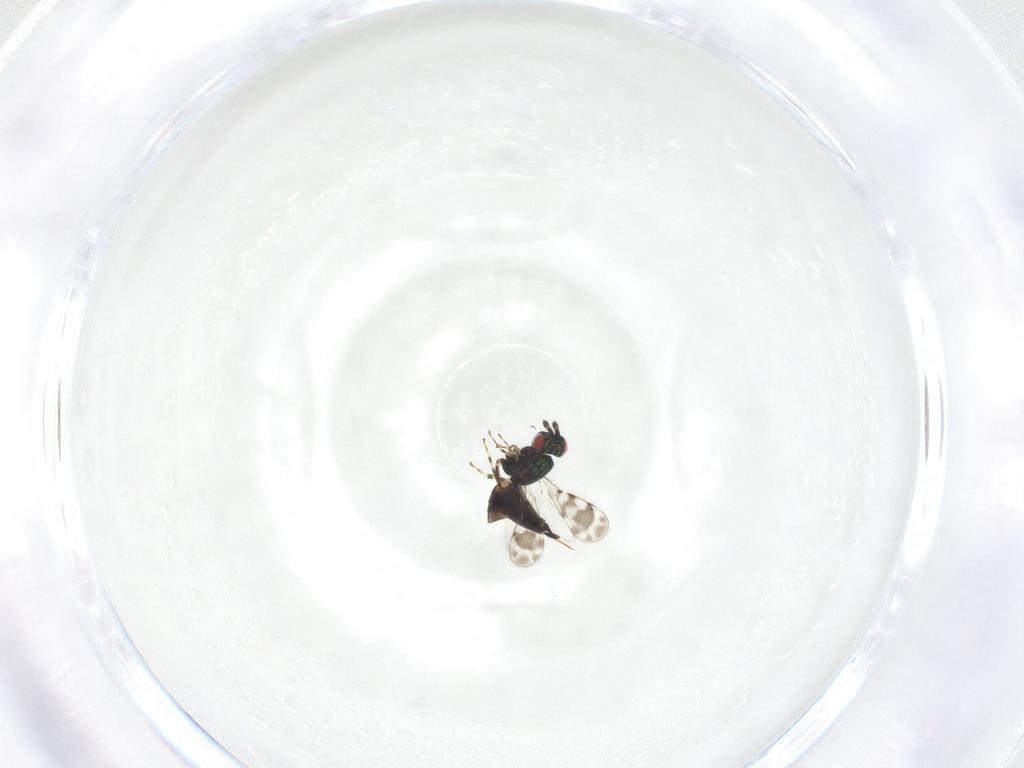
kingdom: Animalia
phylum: Arthropoda
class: Insecta
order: Hymenoptera
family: Eulophidae
